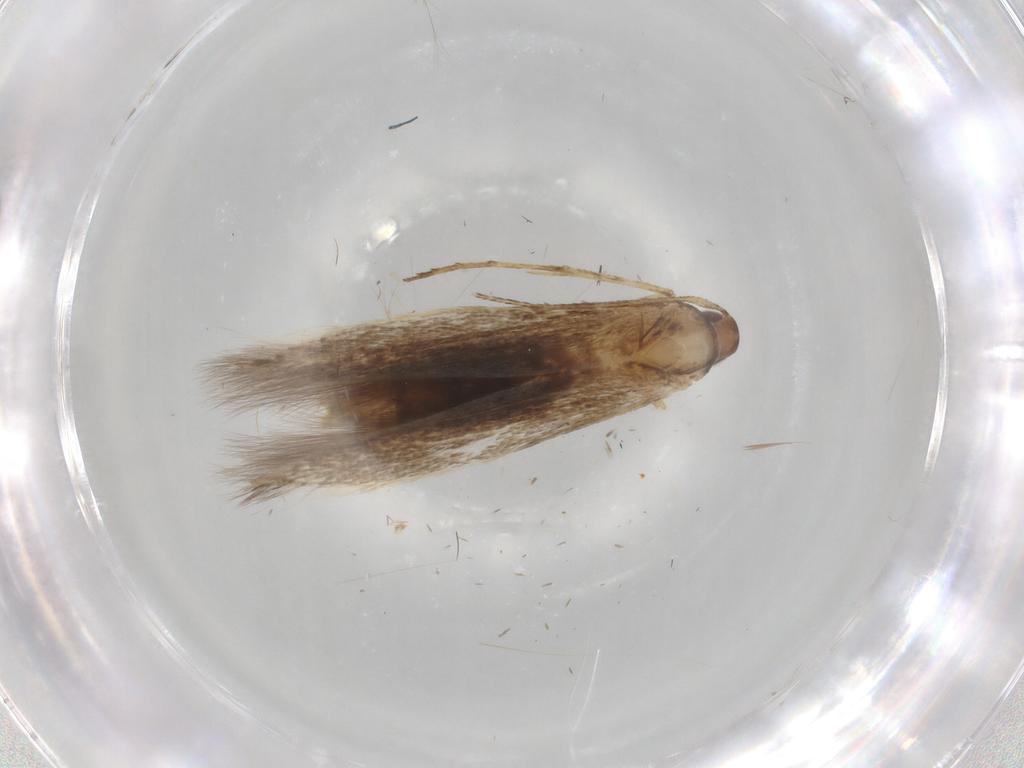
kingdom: Animalia
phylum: Arthropoda
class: Insecta
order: Lepidoptera
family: Cosmopterigidae
